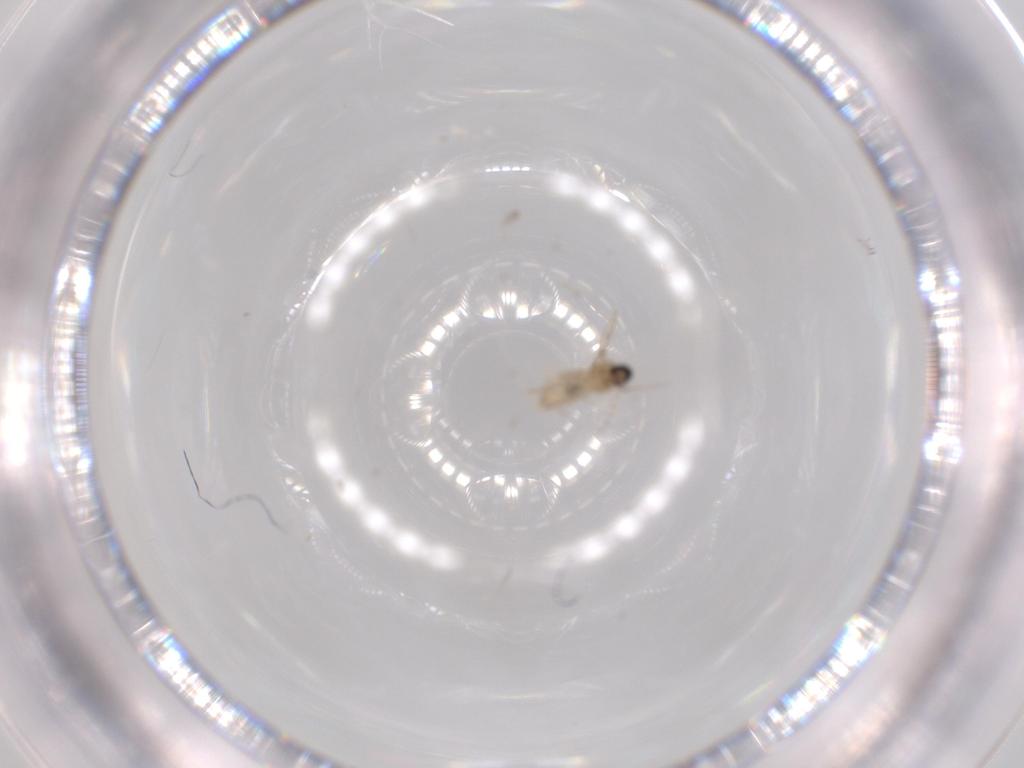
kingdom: Animalia
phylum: Arthropoda
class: Insecta
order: Diptera
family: Cecidomyiidae
